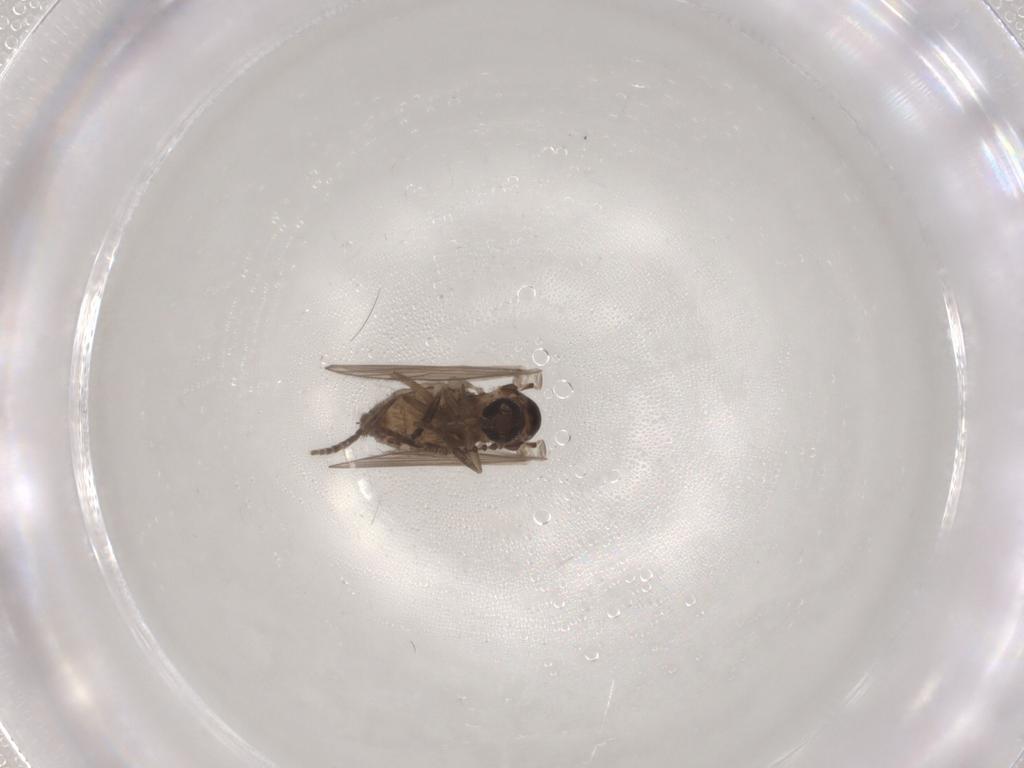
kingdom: Animalia
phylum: Arthropoda
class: Insecta
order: Diptera
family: Psychodidae
